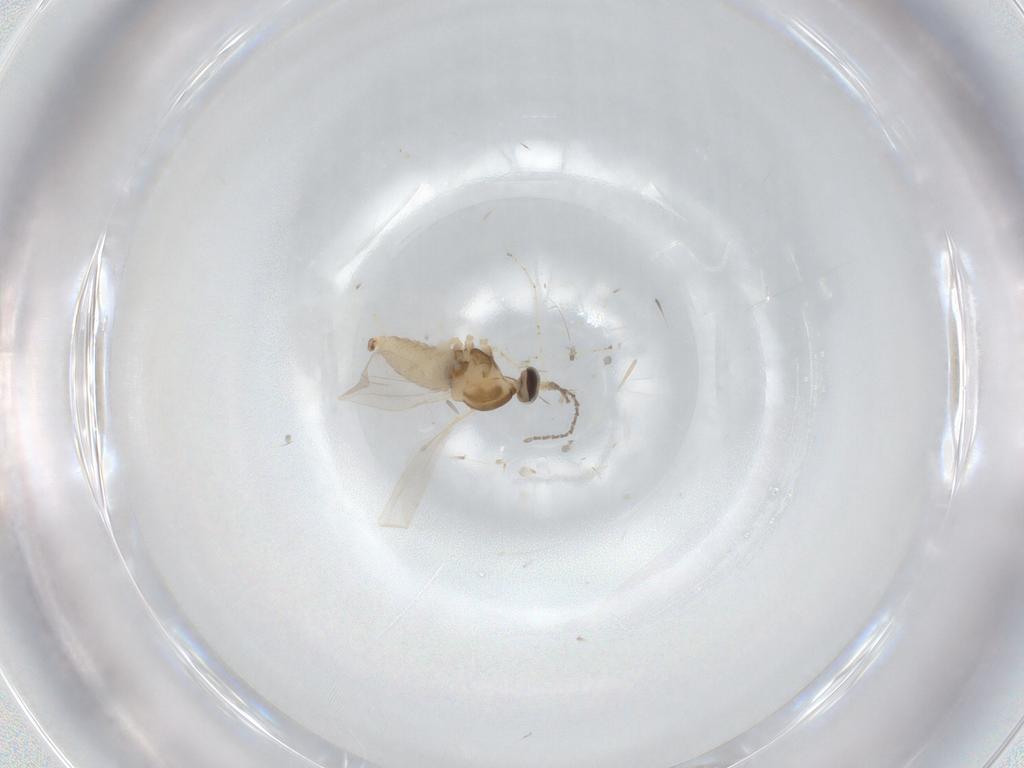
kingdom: Animalia
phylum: Arthropoda
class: Insecta
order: Diptera
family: Cecidomyiidae
